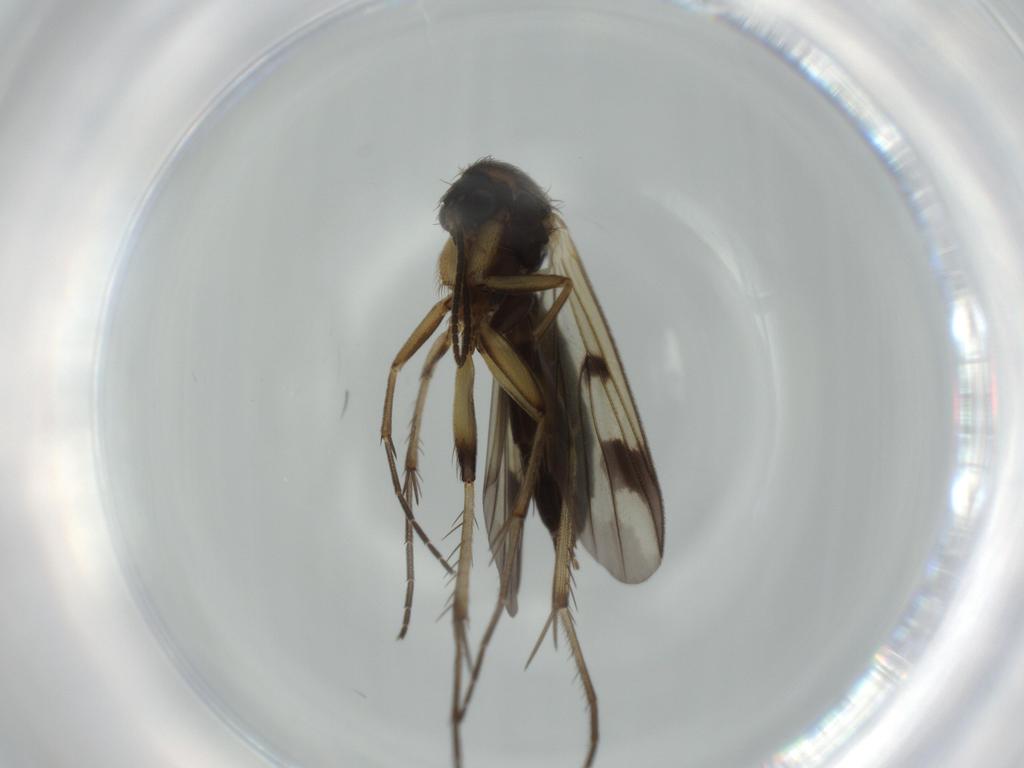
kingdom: Animalia
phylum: Arthropoda
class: Insecta
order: Diptera
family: Mycetophilidae
